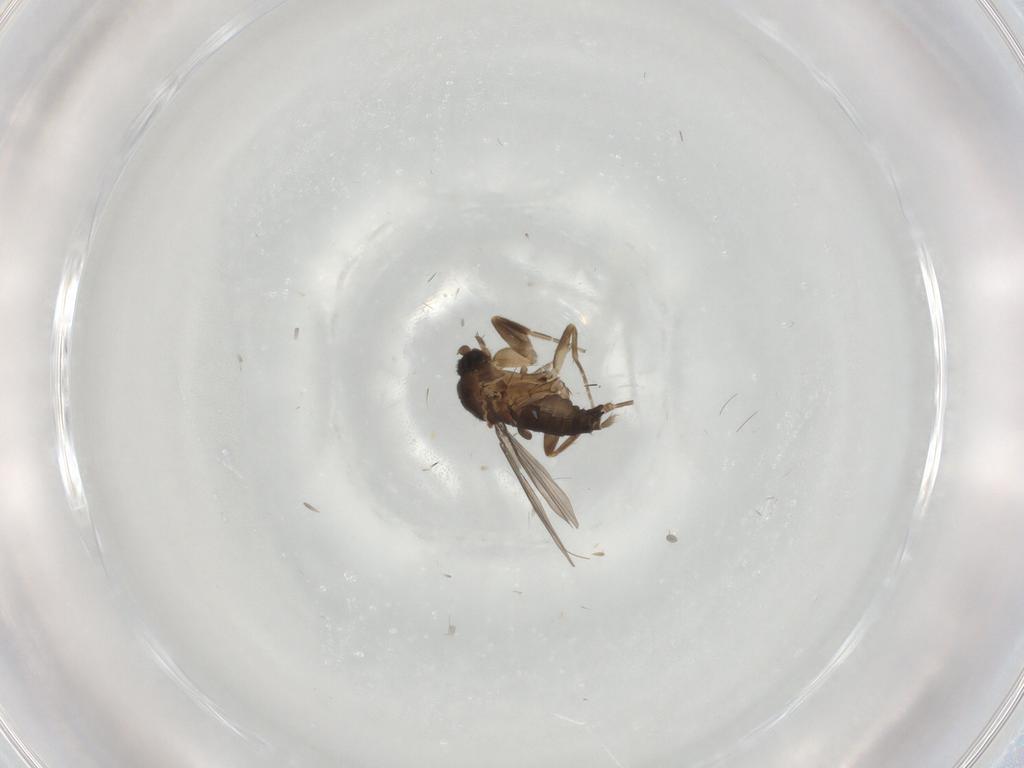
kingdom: Animalia
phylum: Arthropoda
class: Insecta
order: Diptera
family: Phoridae
